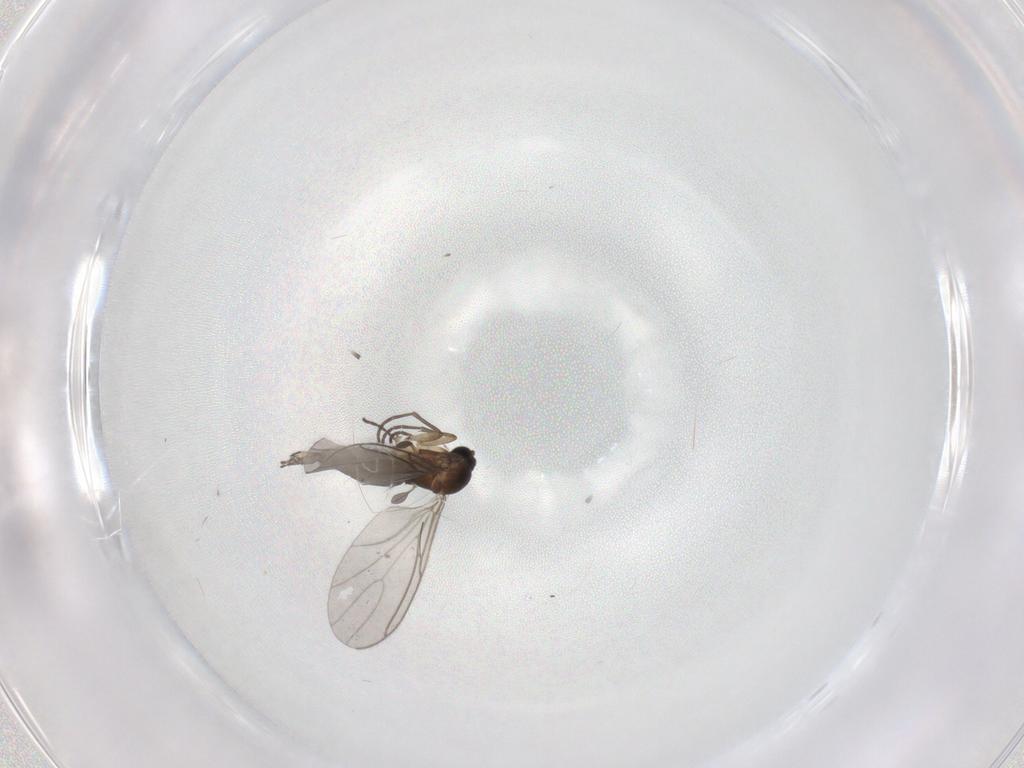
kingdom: Animalia
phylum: Arthropoda
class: Insecta
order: Diptera
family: Sciaridae
